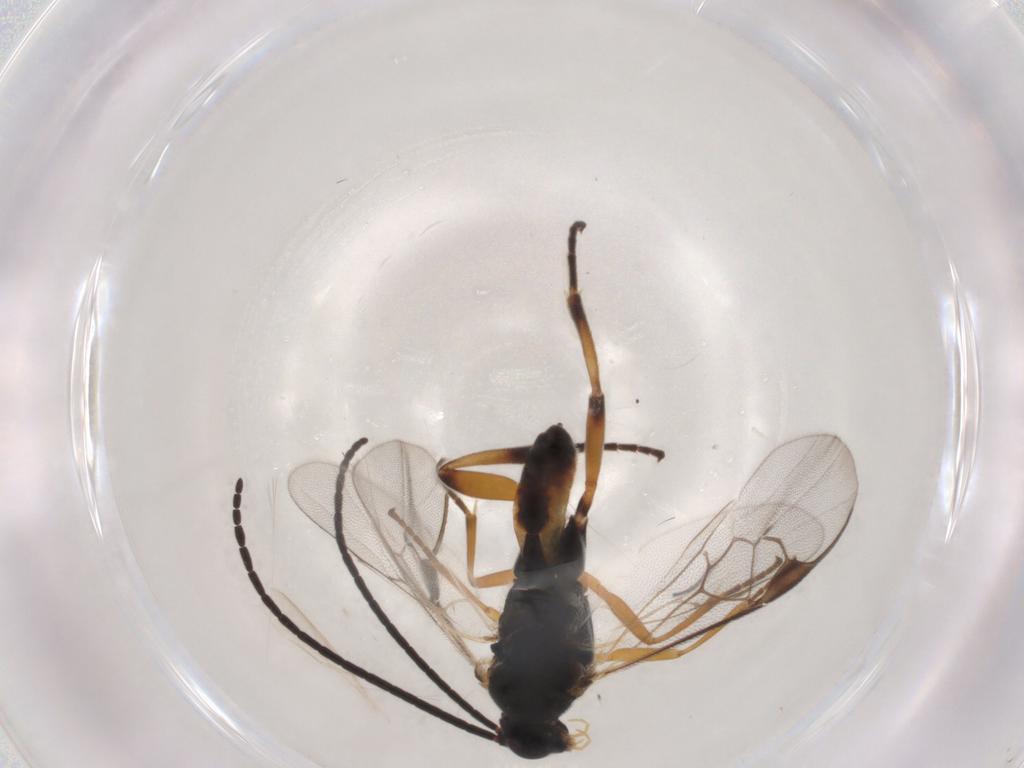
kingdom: Animalia
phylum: Arthropoda
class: Insecta
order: Hymenoptera
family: Braconidae
